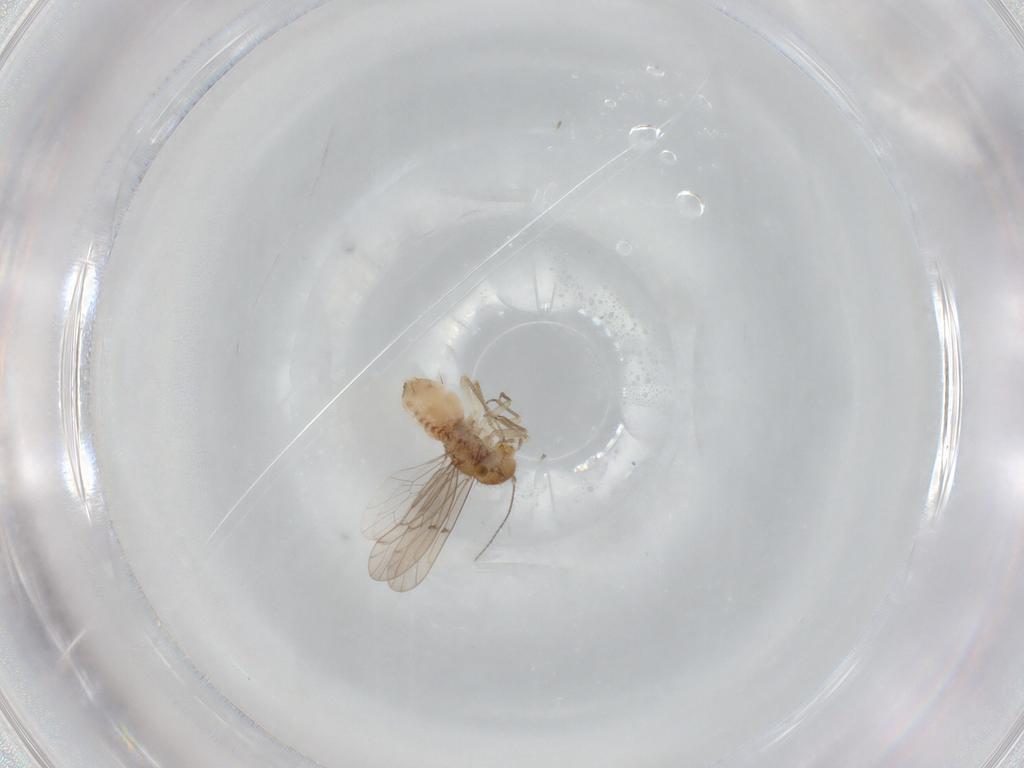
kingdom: Animalia
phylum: Arthropoda
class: Insecta
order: Psocodea
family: Ectopsocidae
